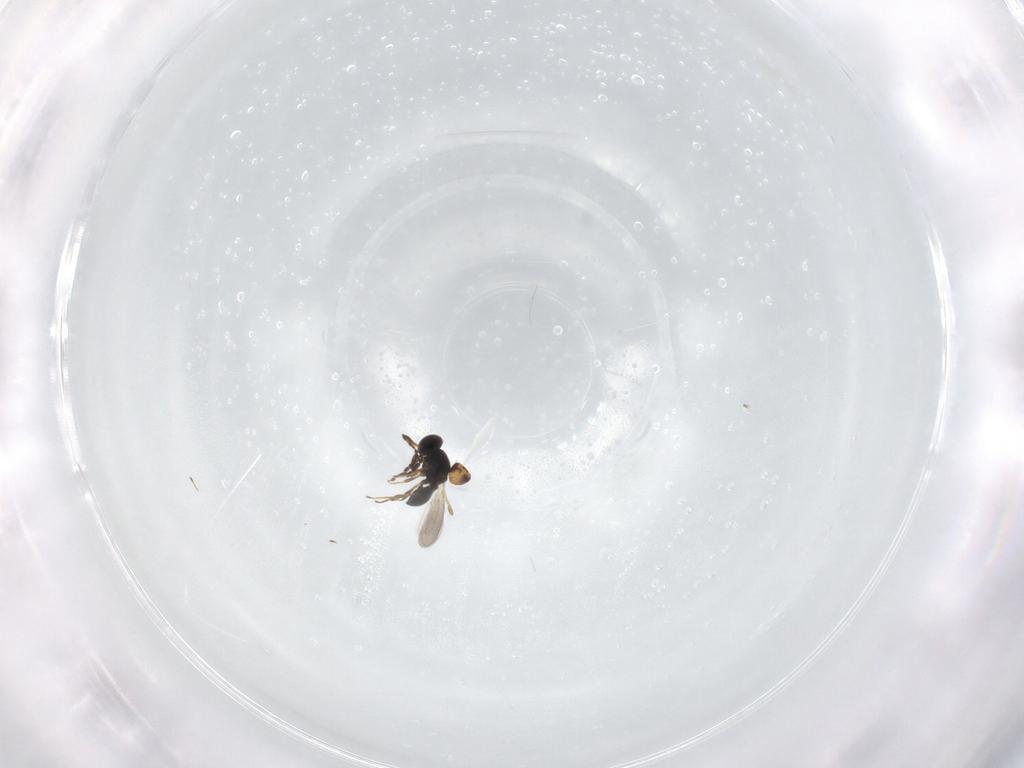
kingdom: Animalia
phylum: Arthropoda
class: Insecta
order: Hymenoptera
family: Platygastridae
